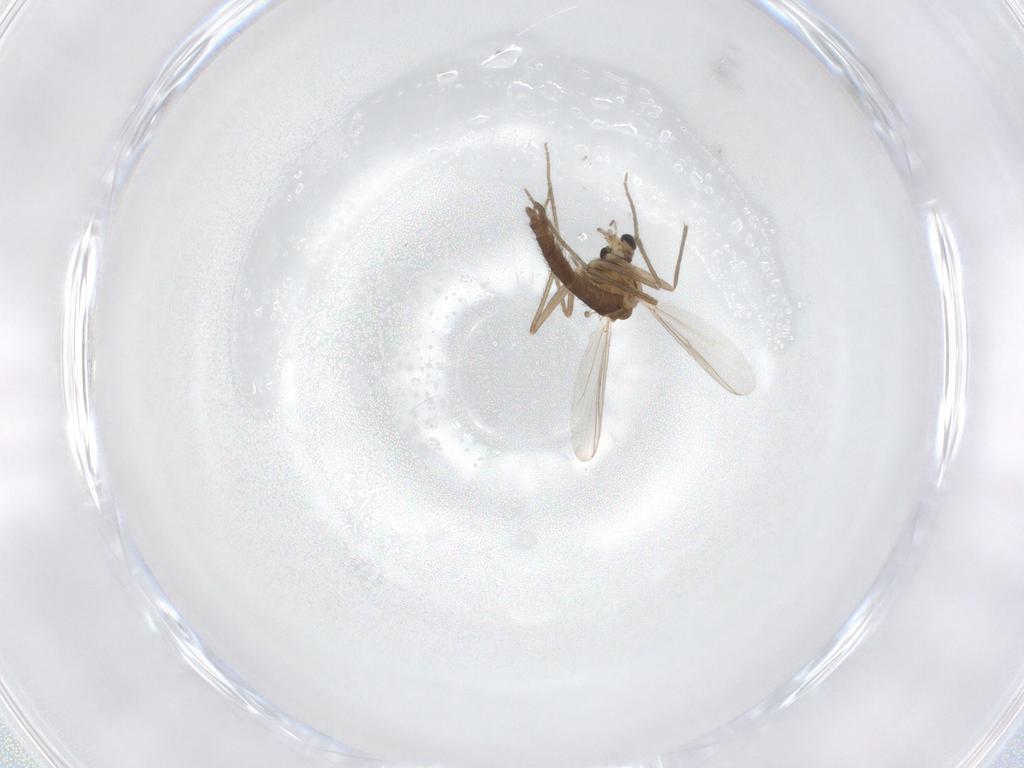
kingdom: Animalia
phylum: Arthropoda
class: Insecta
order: Diptera
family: Chironomidae
